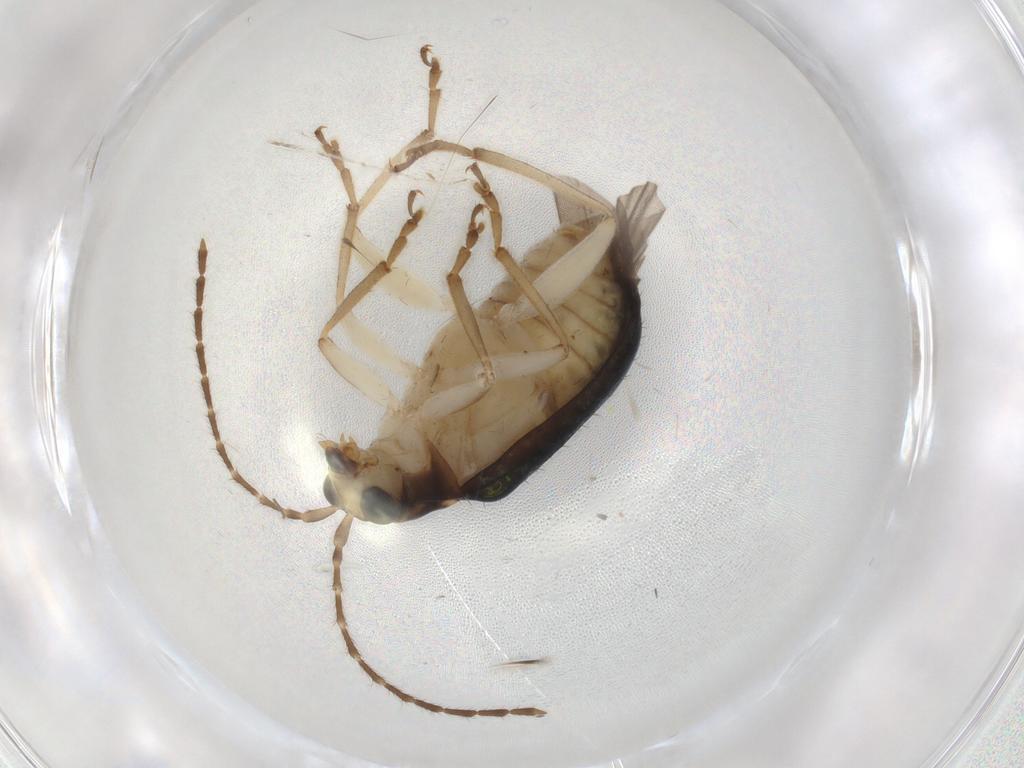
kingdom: Animalia
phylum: Arthropoda
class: Insecta
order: Coleoptera
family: Chrysomelidae
